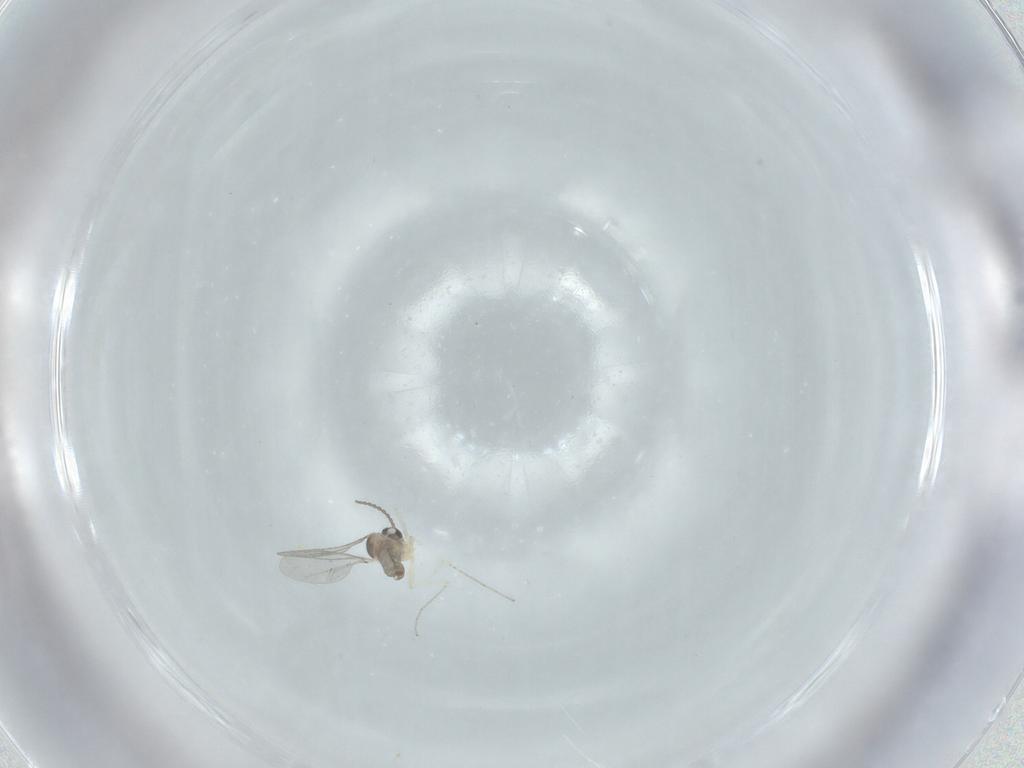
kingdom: Animalia
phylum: Arthropoda
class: Insecta
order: Diptera
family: Cecidomyiidae
